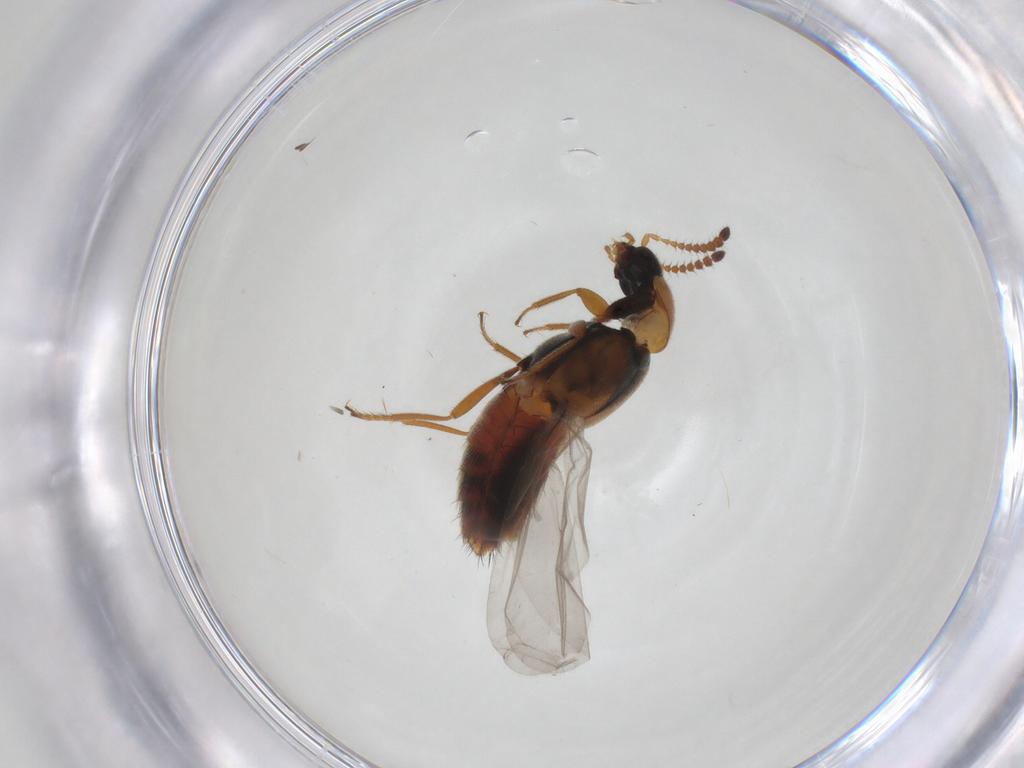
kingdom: Animalia
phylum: Arthropoda
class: Insecta
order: Coleoptera
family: Staphylinidae
